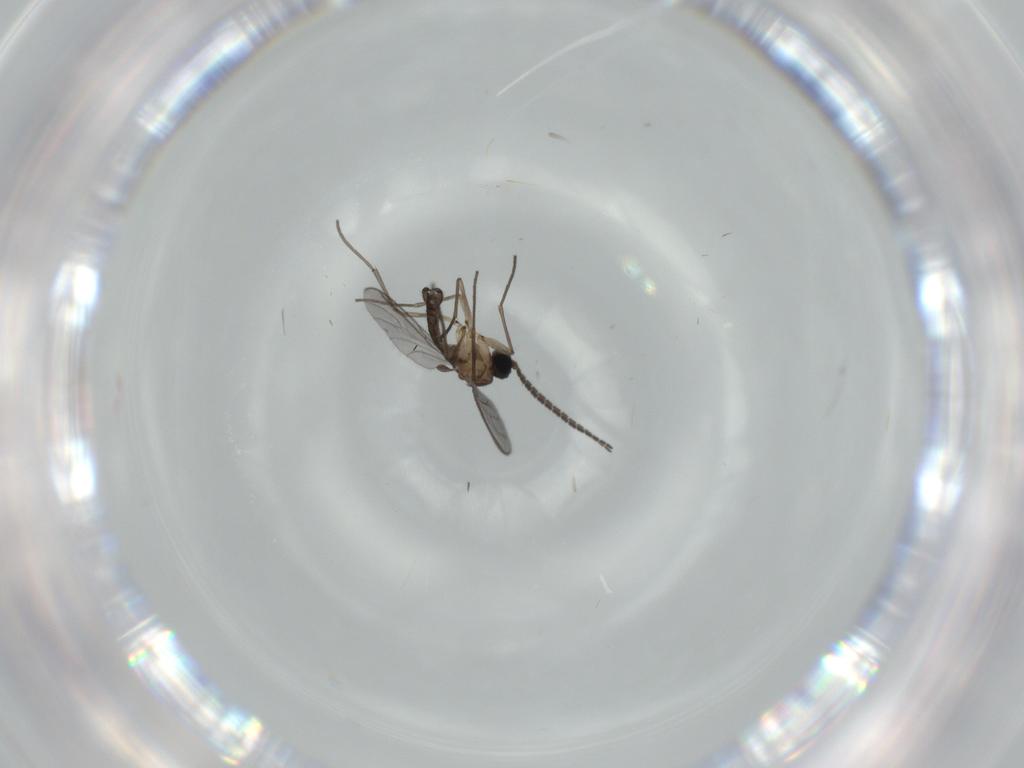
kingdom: Animalia
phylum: Arthropoda
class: Insecta
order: Diptera
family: Sciaridae
